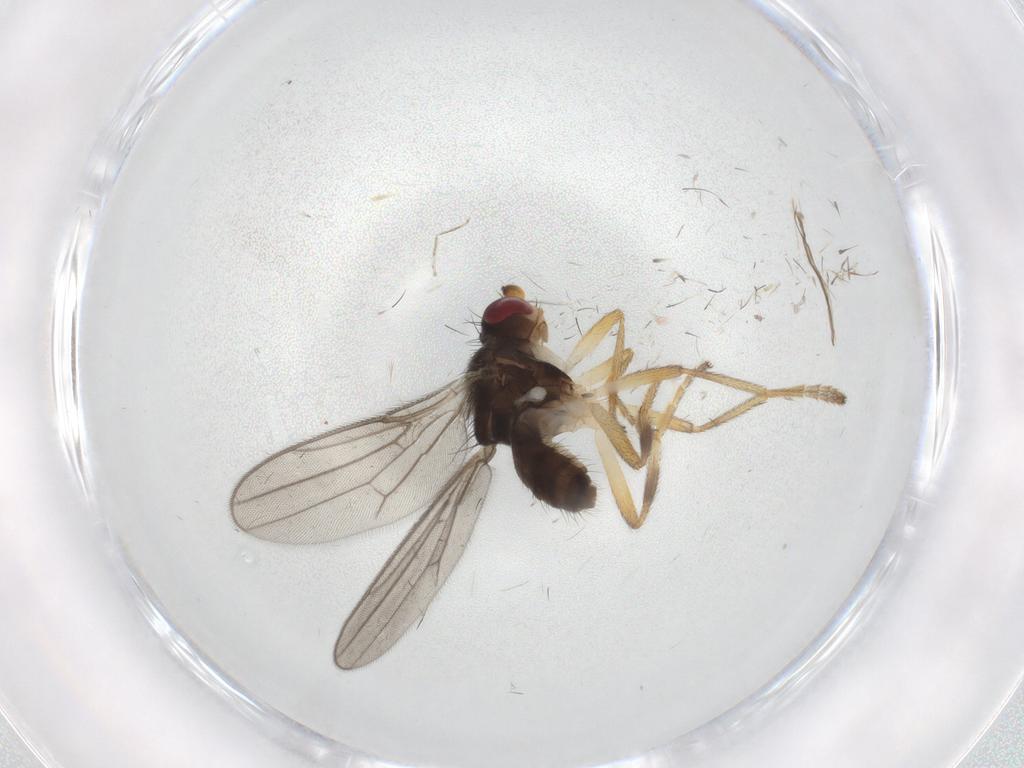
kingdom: Animalia
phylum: Arthropoda
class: Insecta
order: Diptera
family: Chloropidae
